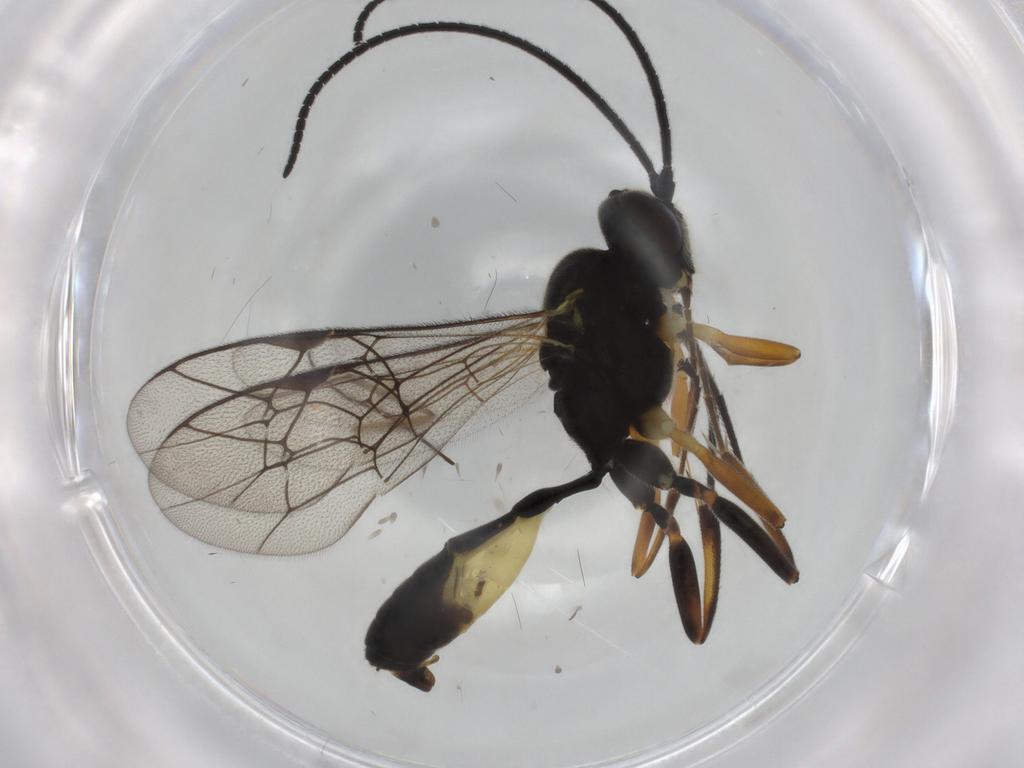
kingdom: Animalia
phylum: Arthropoda
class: Insecta
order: Hymenoptera
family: Ichneumonidae
